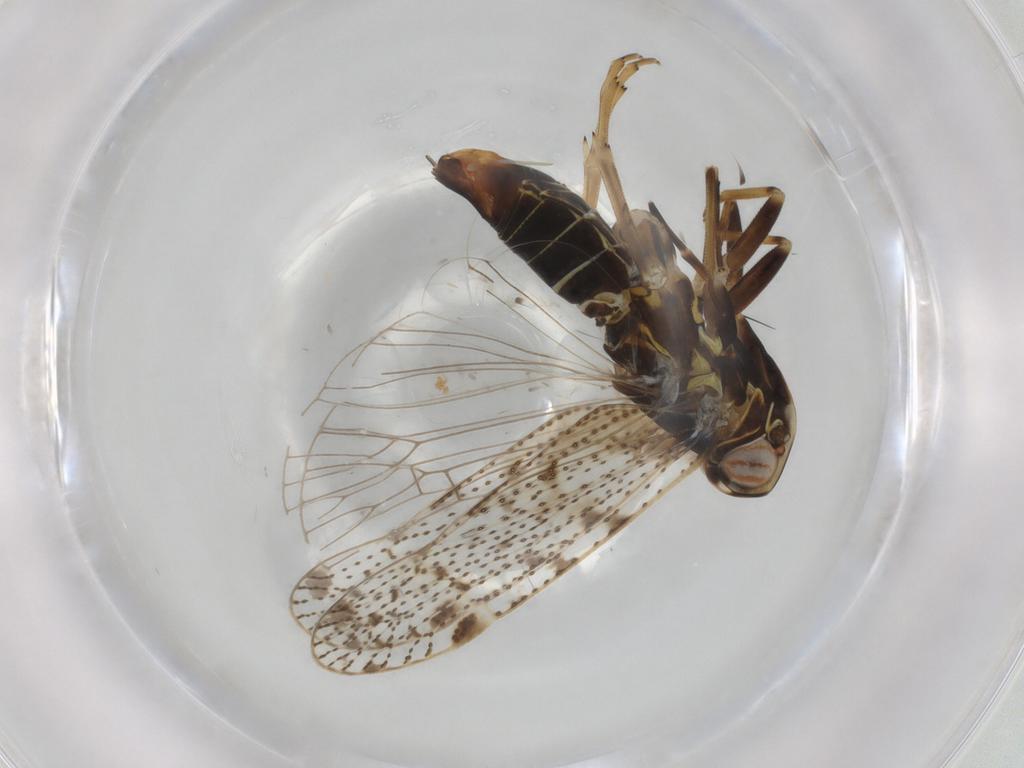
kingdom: Animalia
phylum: Arthropoda
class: Insecta
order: Hemiptera
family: Cixiidae
